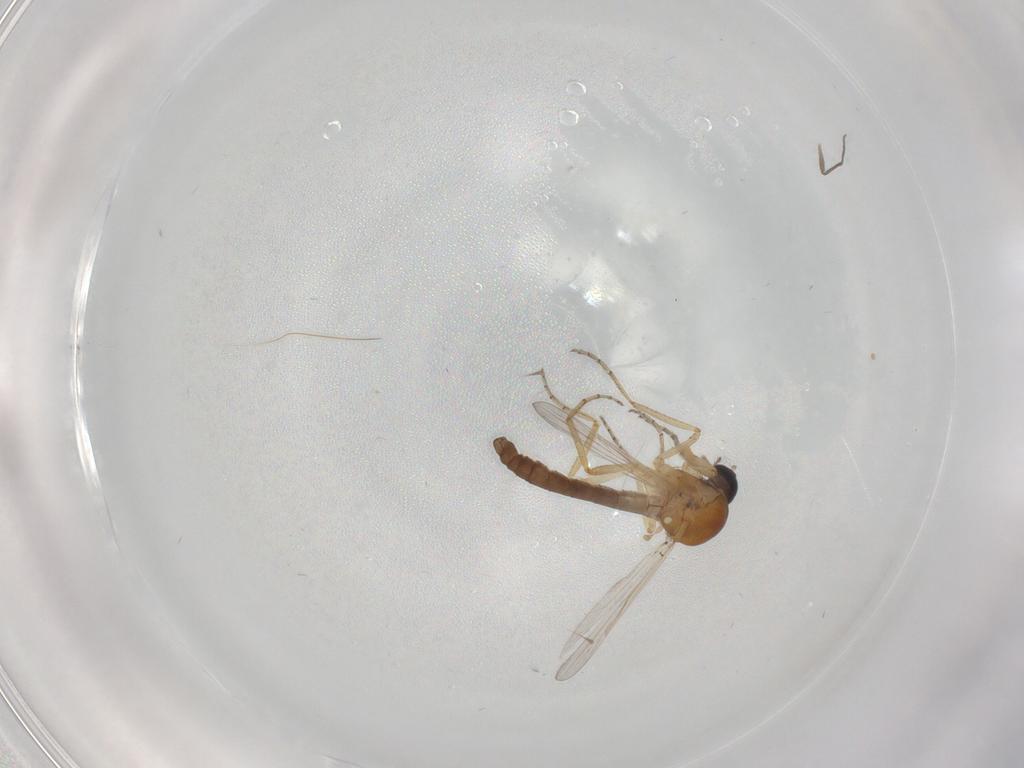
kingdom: Animalia
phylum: Arthropoda
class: Insecta
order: Diptera
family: Ceratopogonidae
